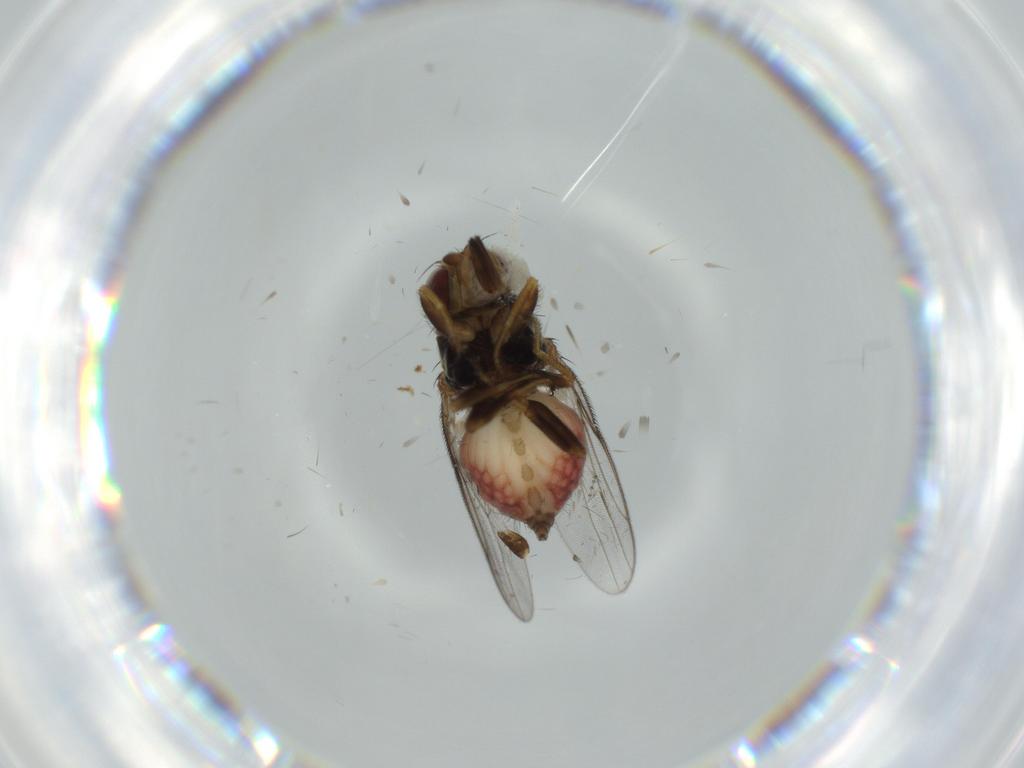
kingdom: Animalia
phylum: Arthropoda
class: Insecta
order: Diptera
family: Chloropidae
